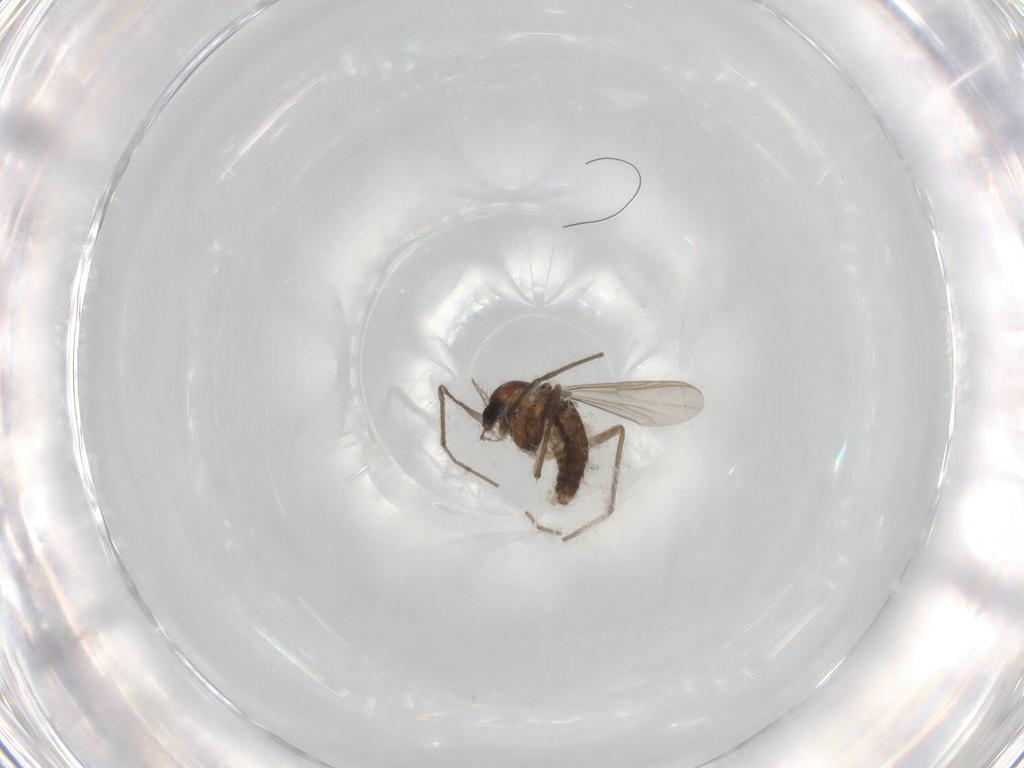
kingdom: Animalia
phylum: Arthropoda
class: Insecta
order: Diptera
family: Chironomidae
